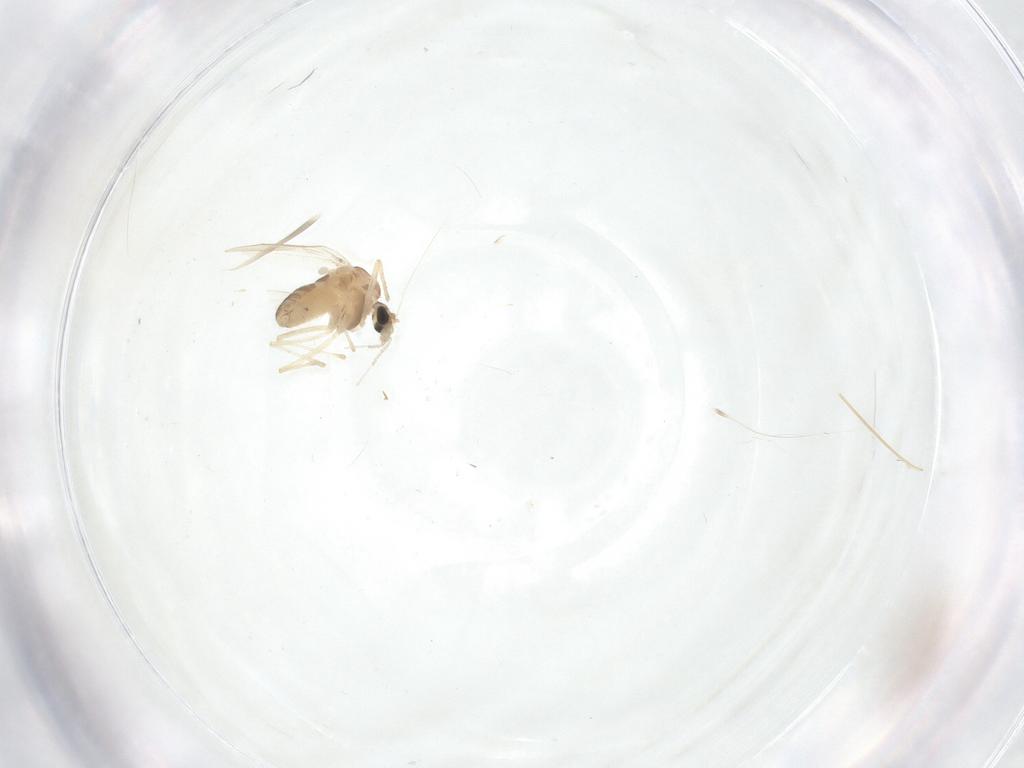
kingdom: Animalia
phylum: Arthropoda
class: Insecta
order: Diptera
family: Chironomidae
